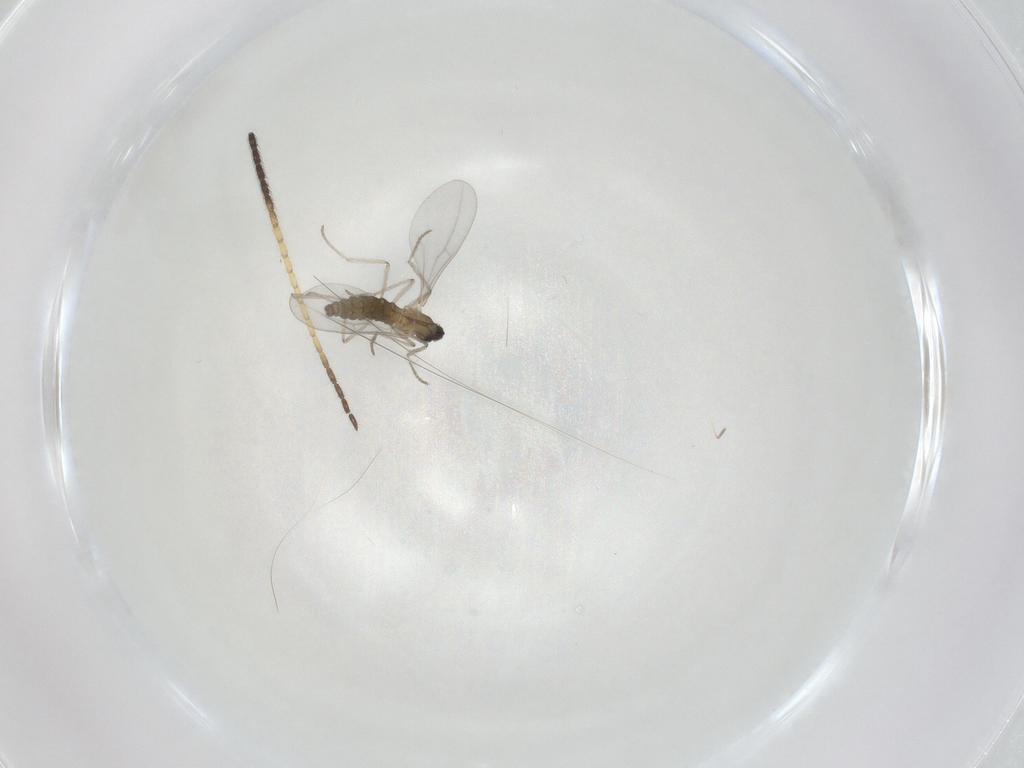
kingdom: Animalia
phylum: Arthropoda
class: Insecta
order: Diptera
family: Cecidomyiidae
